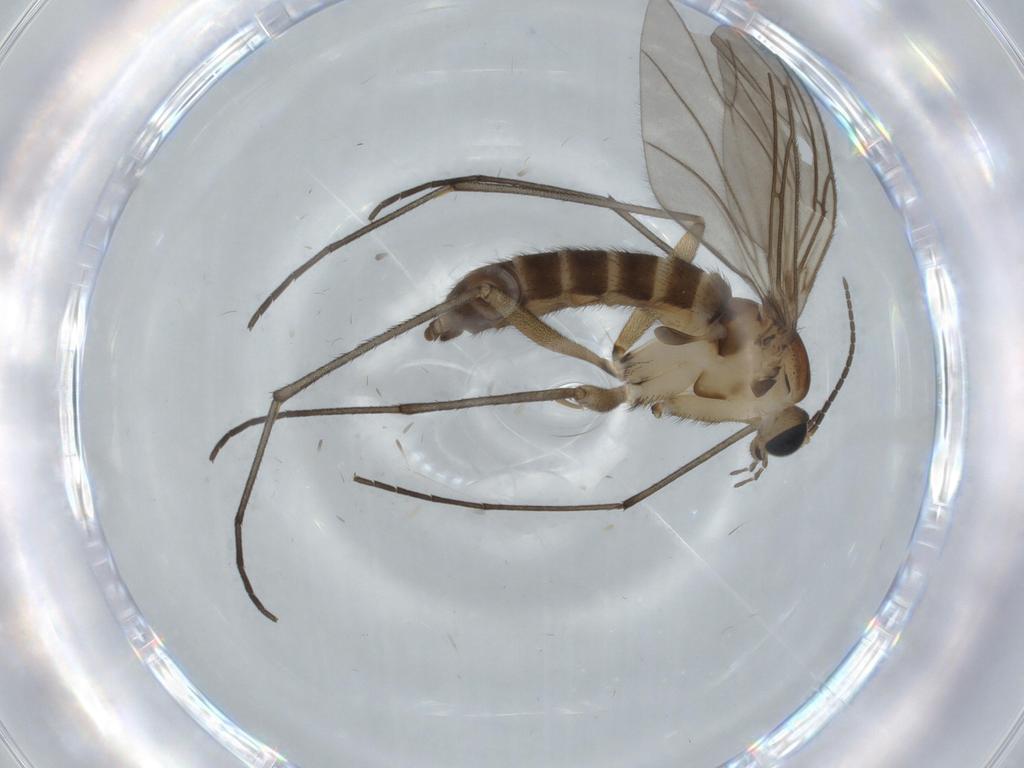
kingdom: Animalia
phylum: Arthropoda
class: Insecta
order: Diptera
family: Sciaridae
